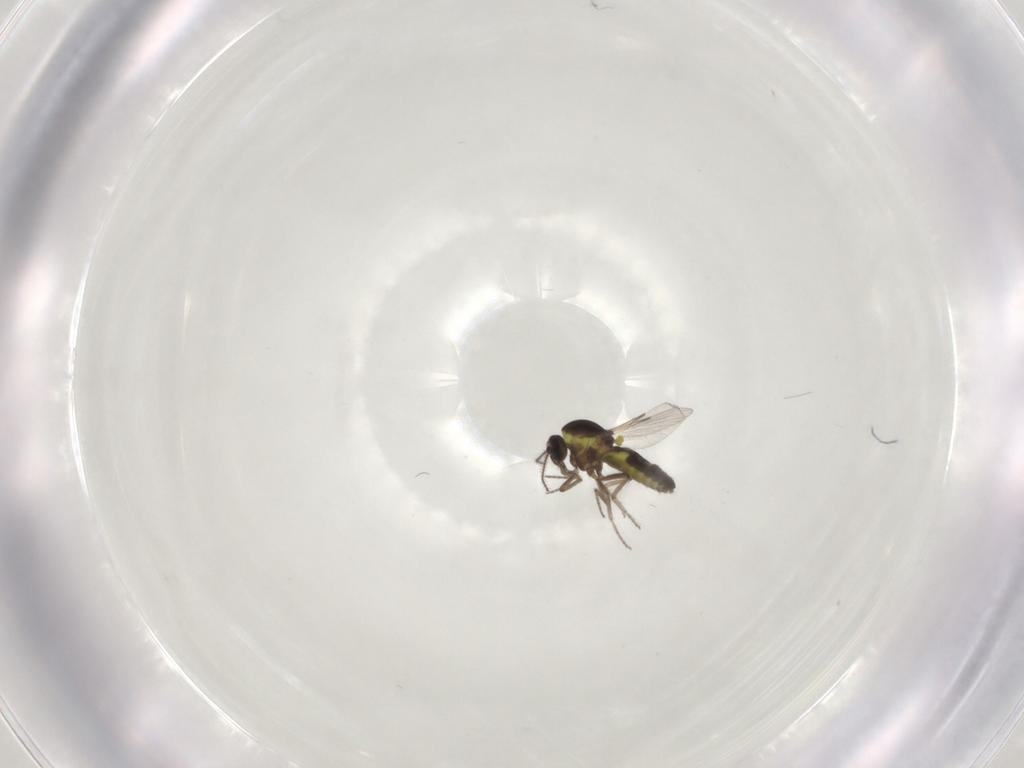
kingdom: Animalia
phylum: Arthropoda
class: Insecta
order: Diptera
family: Ceratopogonidae
